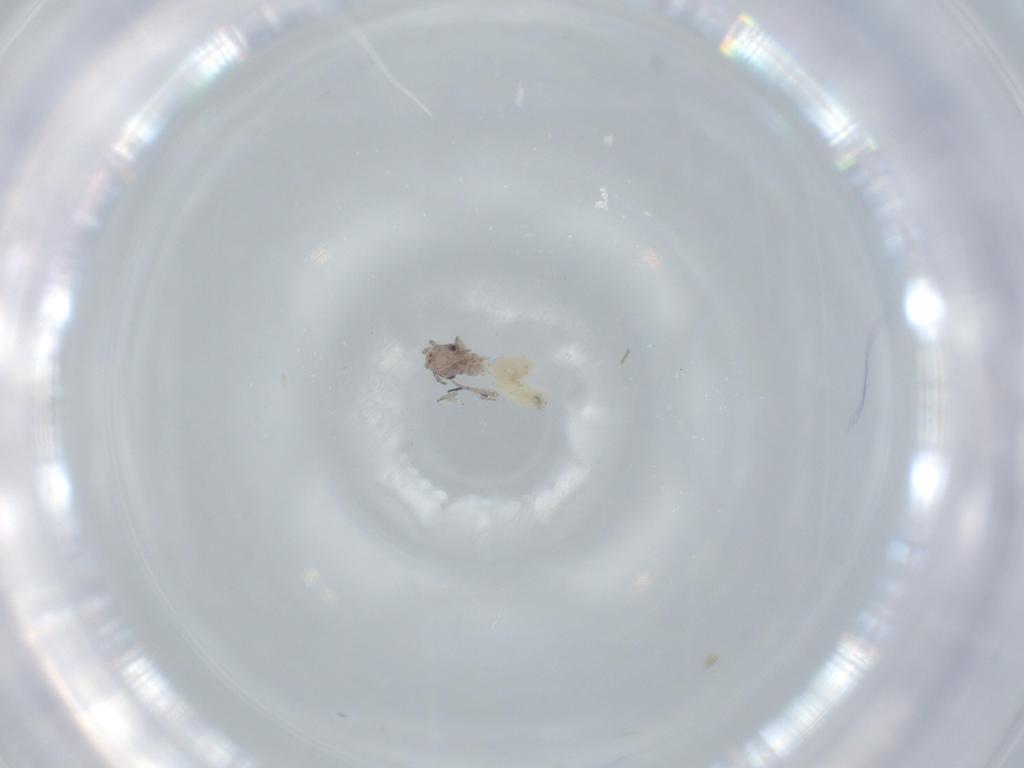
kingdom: Animalia
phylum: Arthropoda
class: Insecta
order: Psocodea
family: Lepidopsocidae
